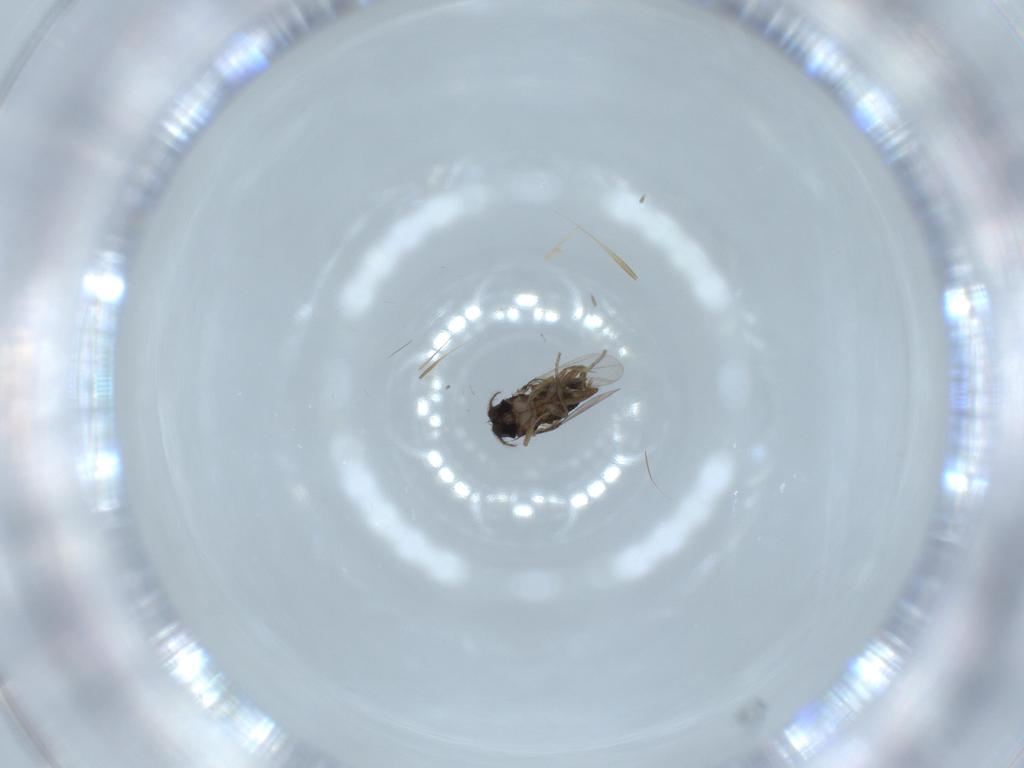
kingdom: Animalia
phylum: Arthropoda
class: Insecta
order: Diptera
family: Phoridae
